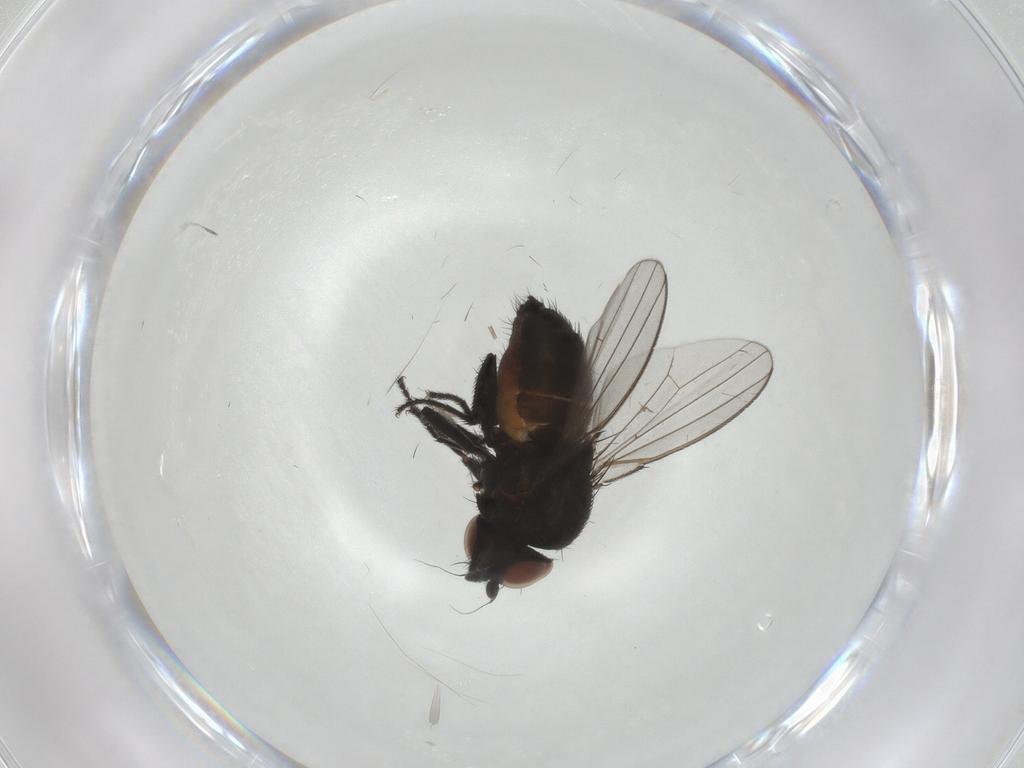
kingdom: Animalia
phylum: Arthropoda
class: Insecta
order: Diptera
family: Milichiidae
